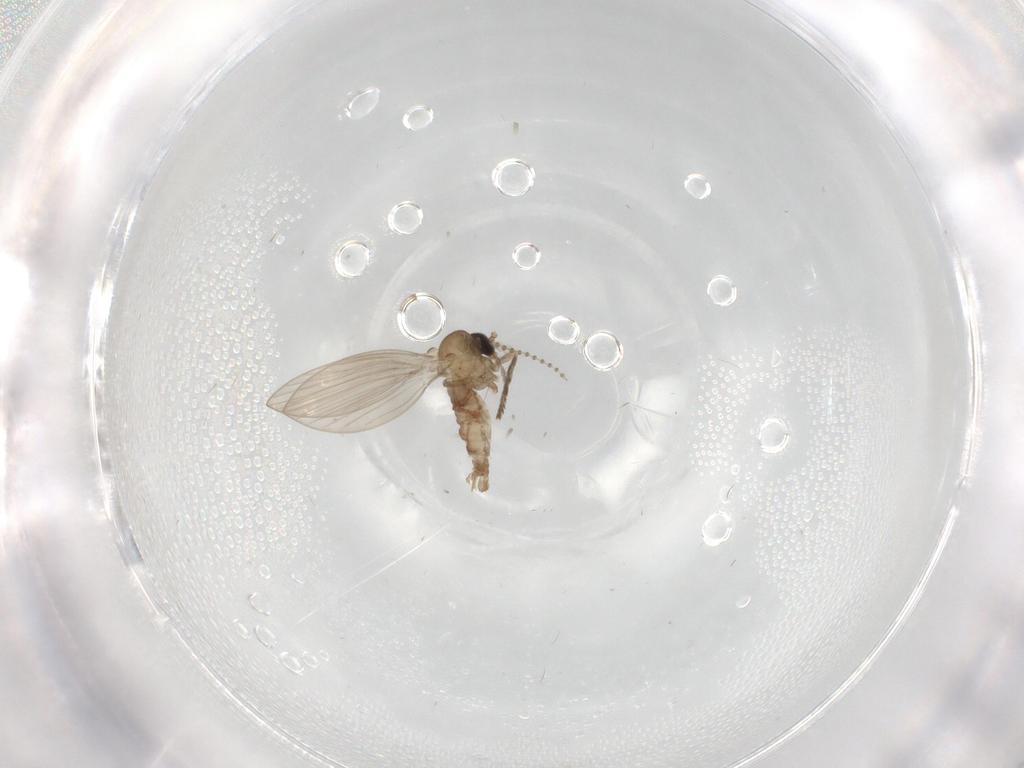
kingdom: Animalia
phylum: Arthropoda
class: Insecta
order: Diptera
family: Psychodidae
